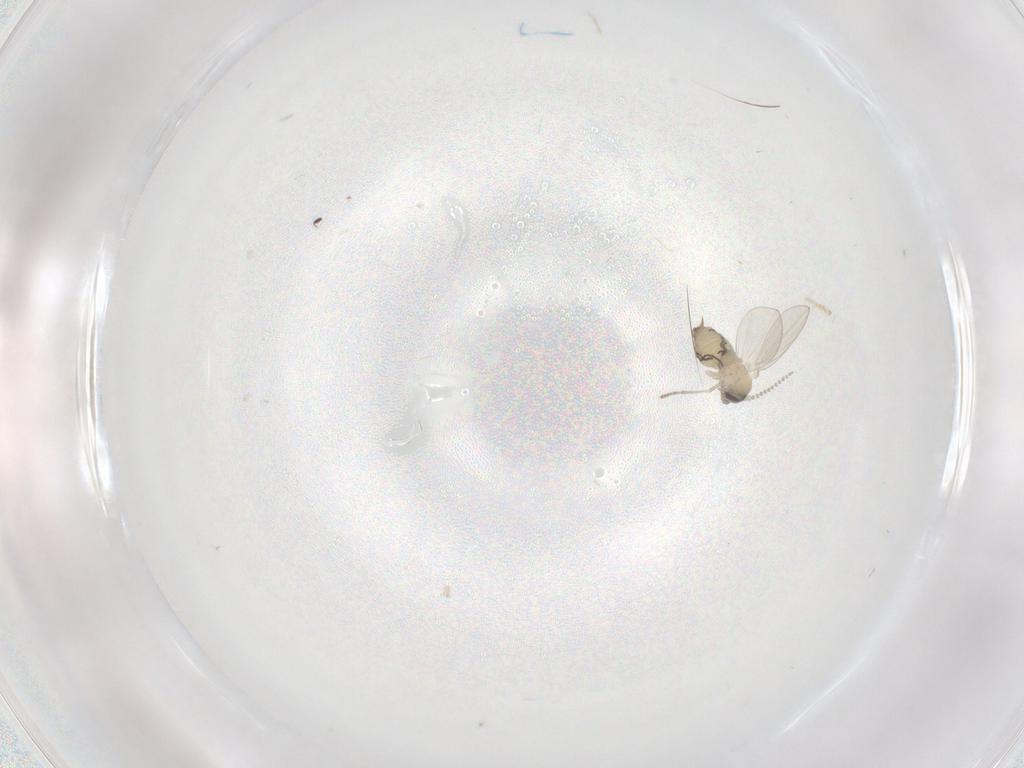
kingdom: Animalia
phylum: Arthropoda
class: Insecta
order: Diptera
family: Psychodidae
